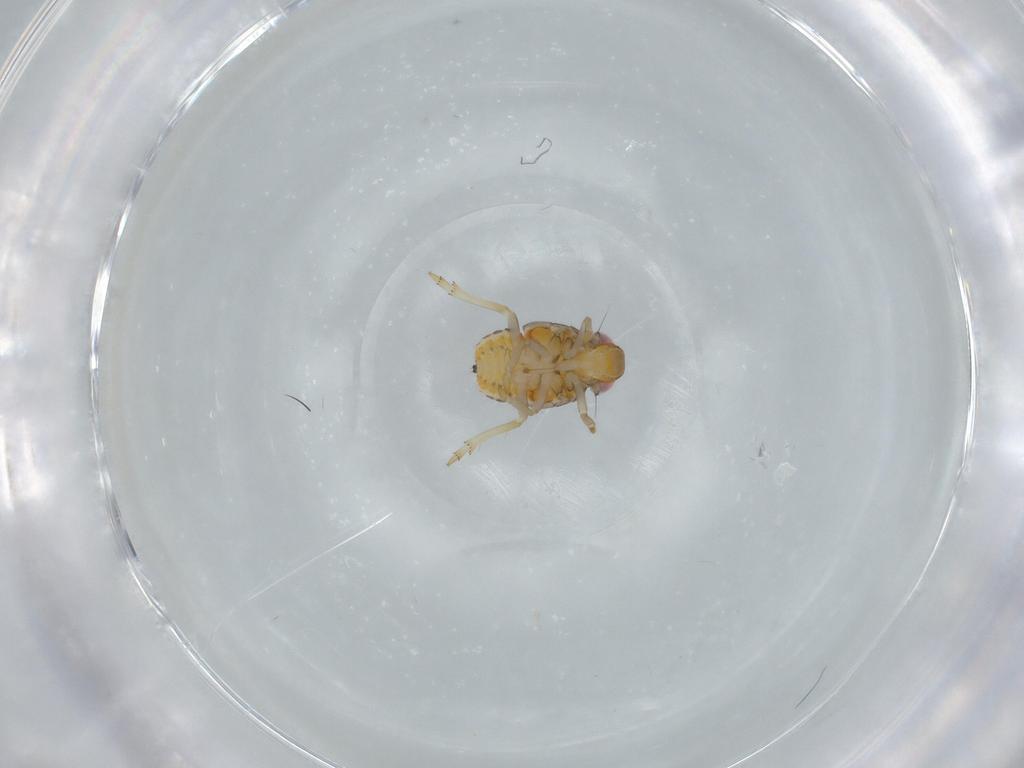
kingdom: Animalia
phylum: Arthropoda
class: Insecta
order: Hemiptera
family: Issidae
